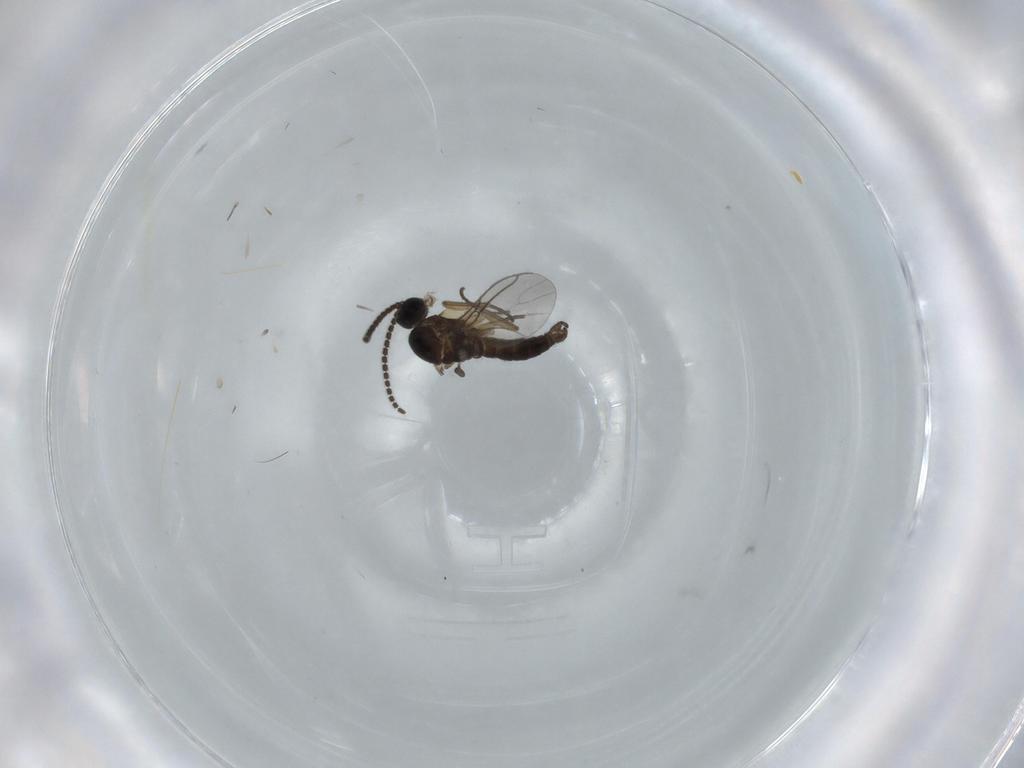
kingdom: Animalia
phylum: Arthropoda
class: Insecta
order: Diptera
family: Sciaridae
